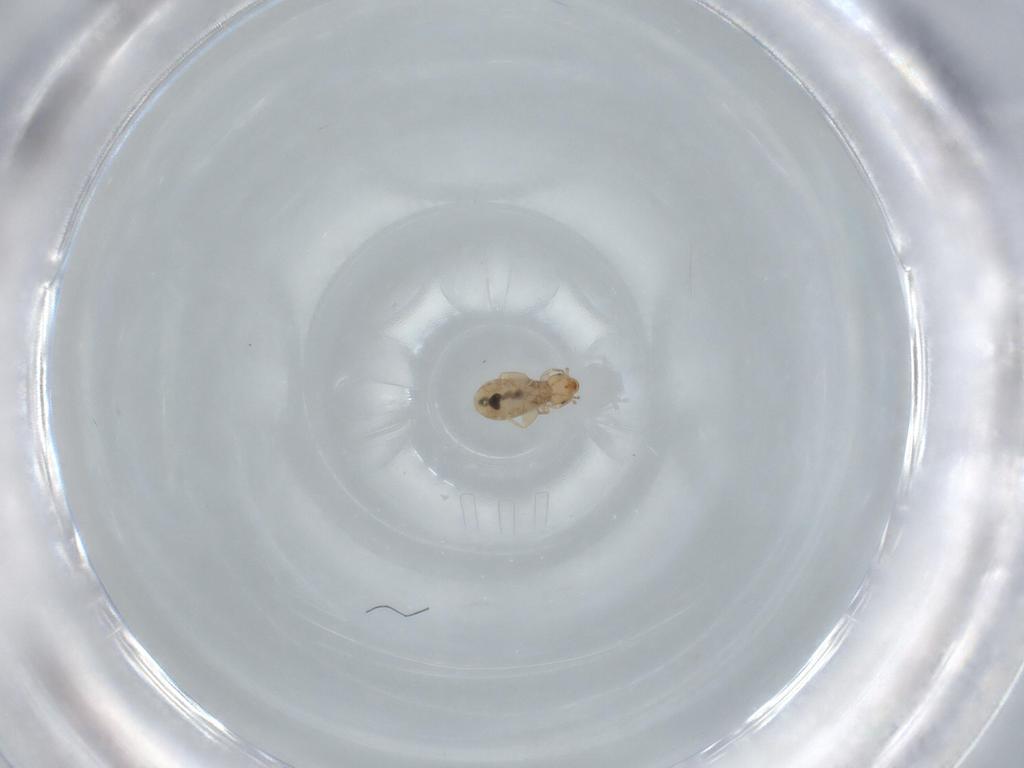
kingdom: Animalia
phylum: Arthropoda
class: Insecta
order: Psocodea
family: Liposcelididae
